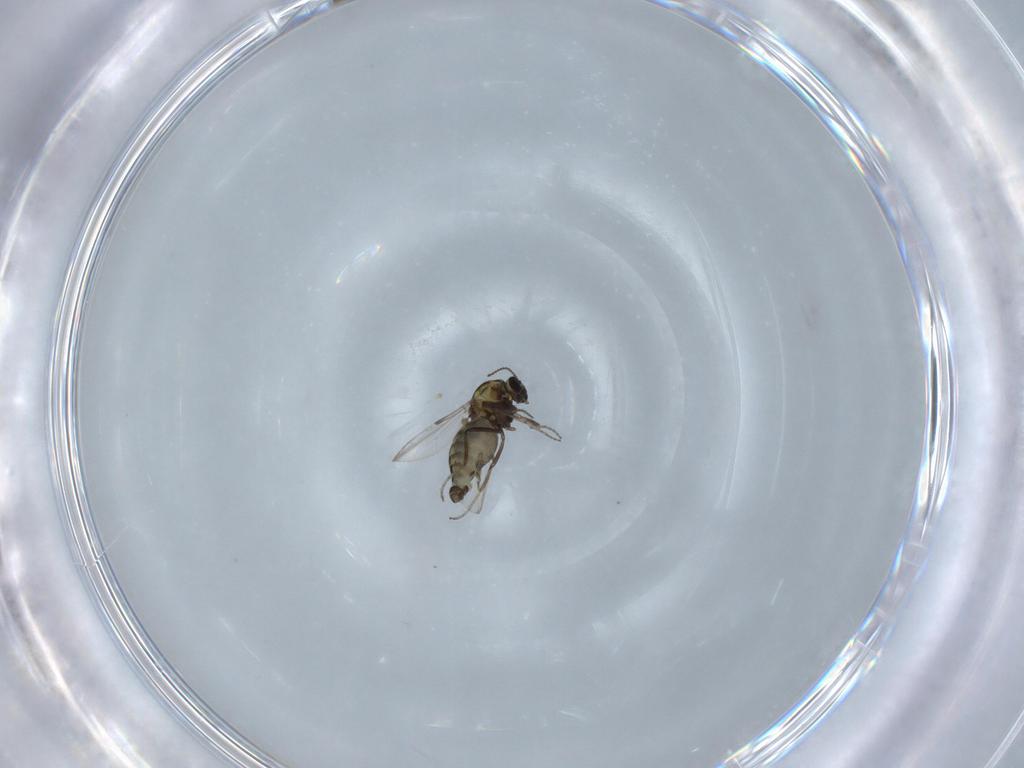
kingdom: Animalia
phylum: Arthropoda
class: Insecta
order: Diptera
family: Ceratopogonidae
